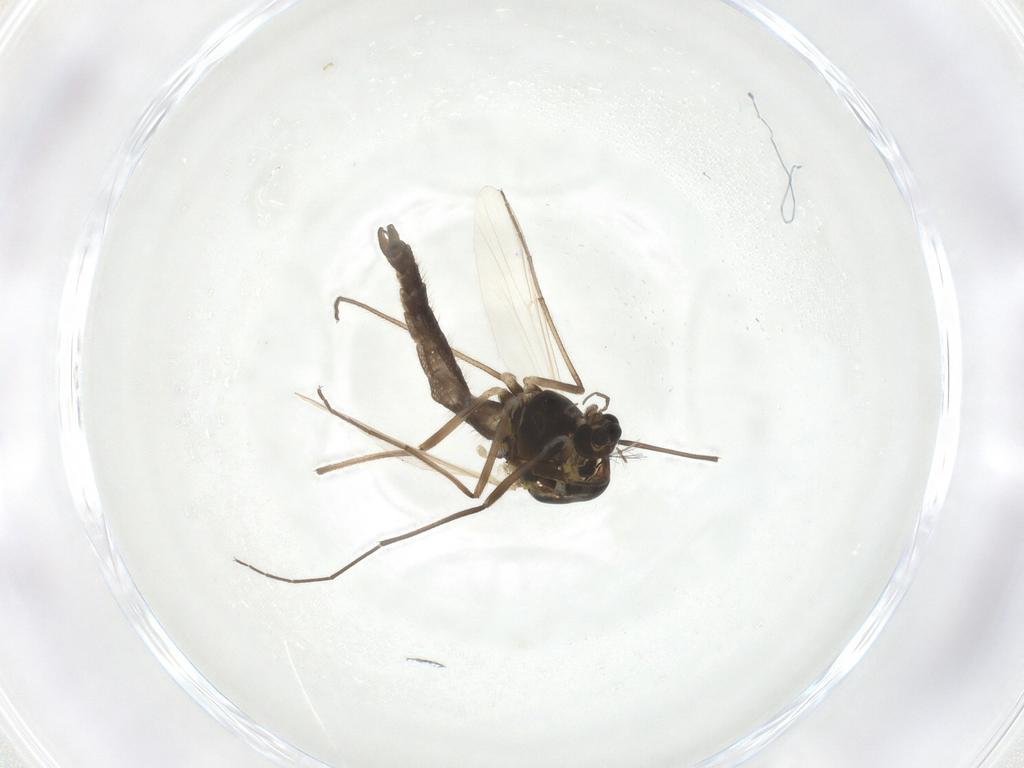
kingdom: Animalia
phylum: Arthropoda
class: Insecta
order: Diptera
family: Chironomidae
